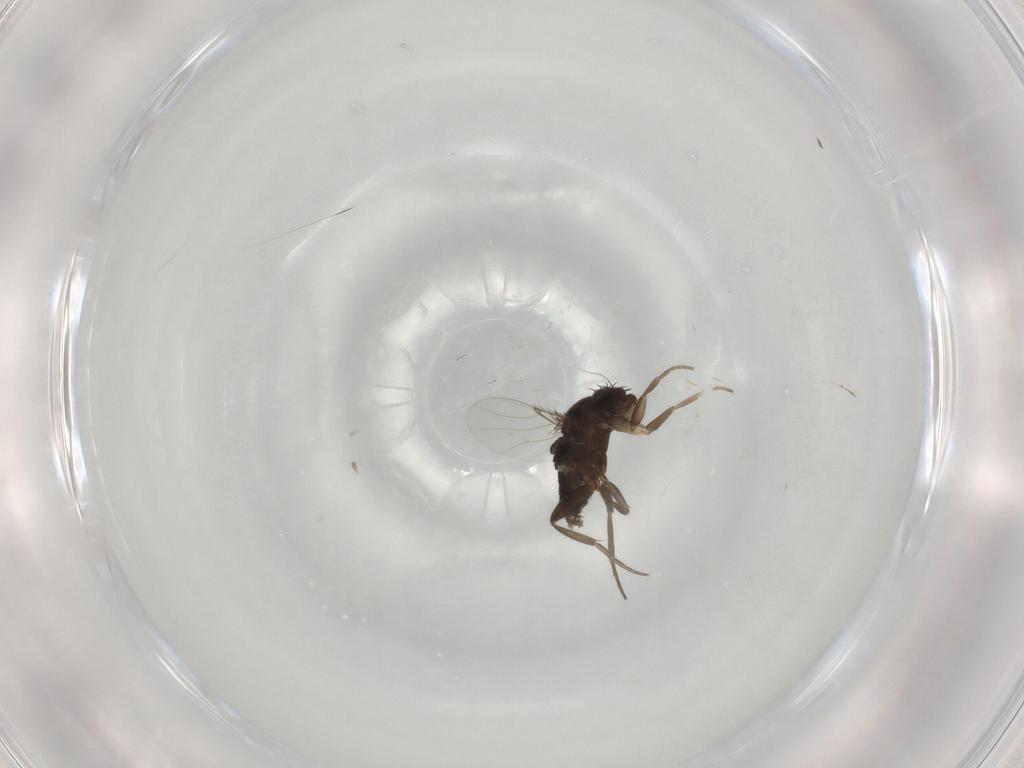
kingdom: Animalia
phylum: Arthropoda
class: Insecta
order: Diptera
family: Phoridae
